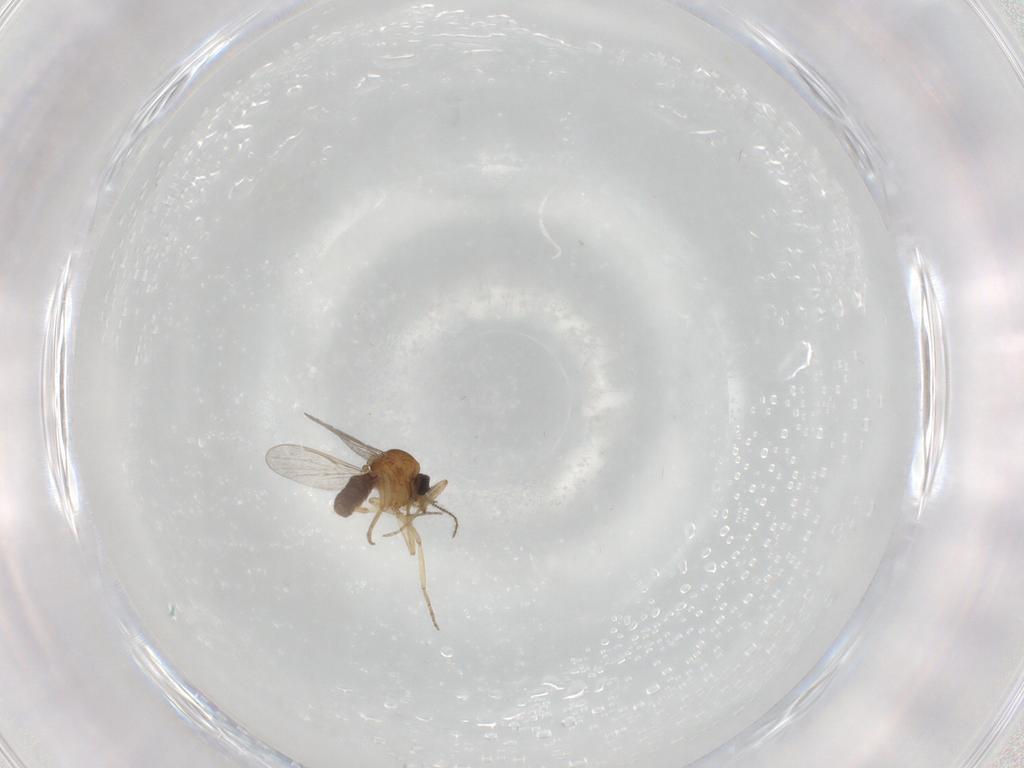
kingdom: Animalia
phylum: Arthropoda
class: Insecta
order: Diptera
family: Ceratopogonidae
